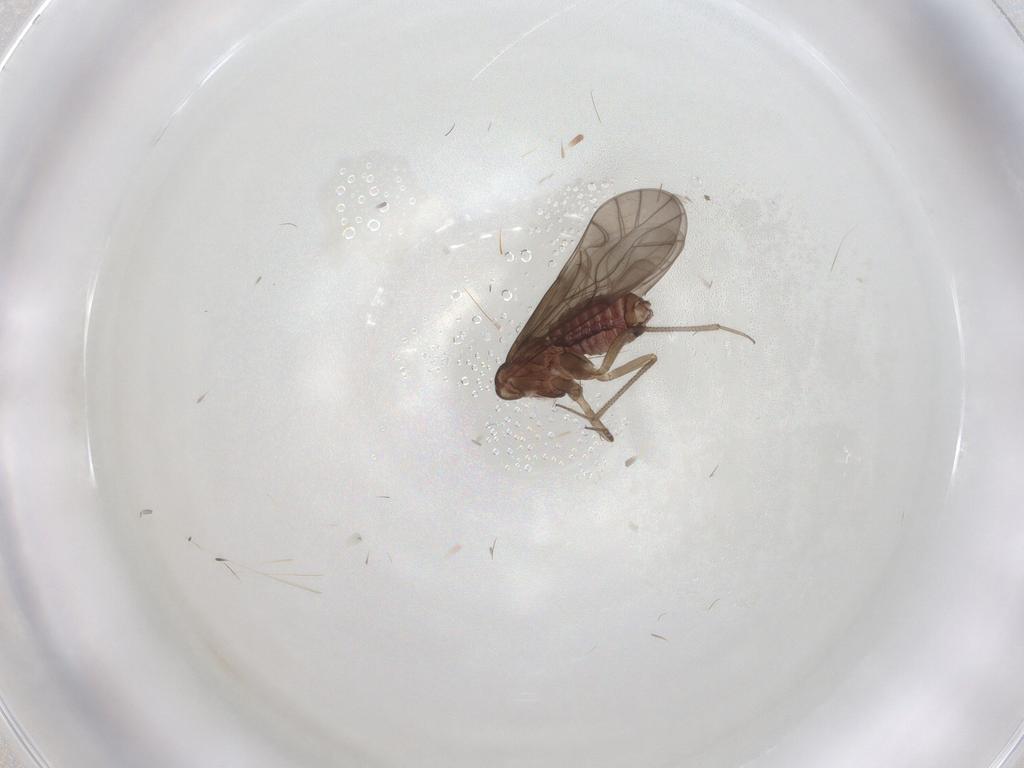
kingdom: Animalia
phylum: Arthropoda
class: Insecta
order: Psocodea
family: Lachesillidae
